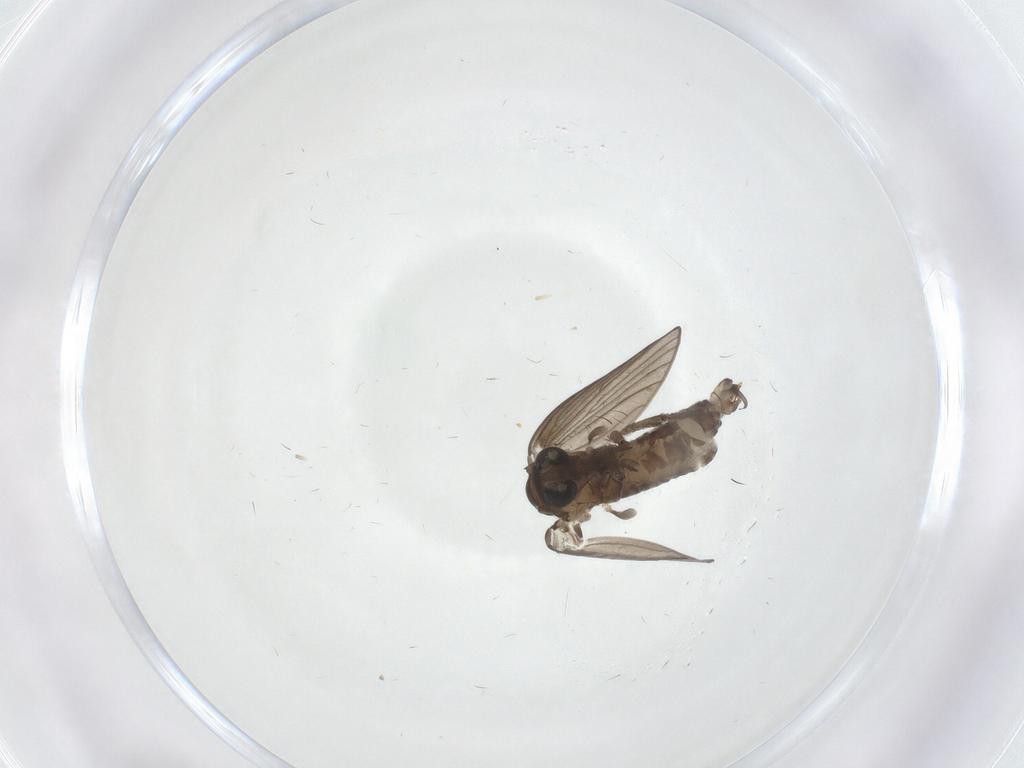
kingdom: Animalia
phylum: Arthropoda
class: Insecta
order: Diptera
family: Psychodidae
